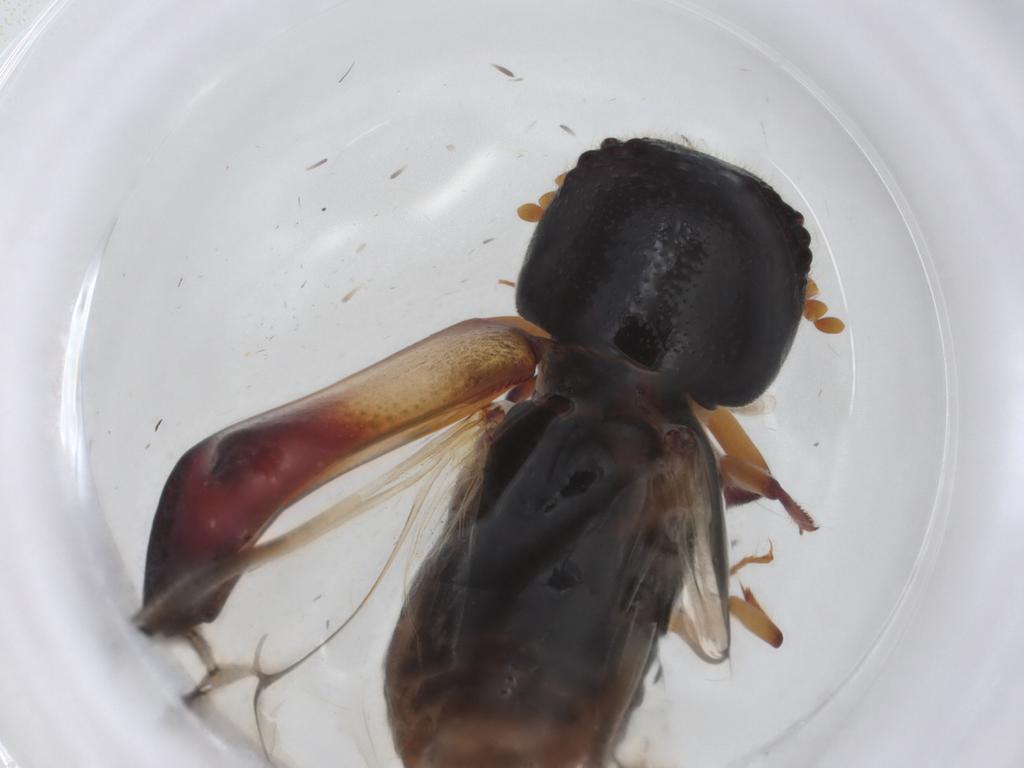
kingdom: Animalia
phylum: Arthropoda
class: Insecta
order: Coleoptera
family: Bostrichidae
